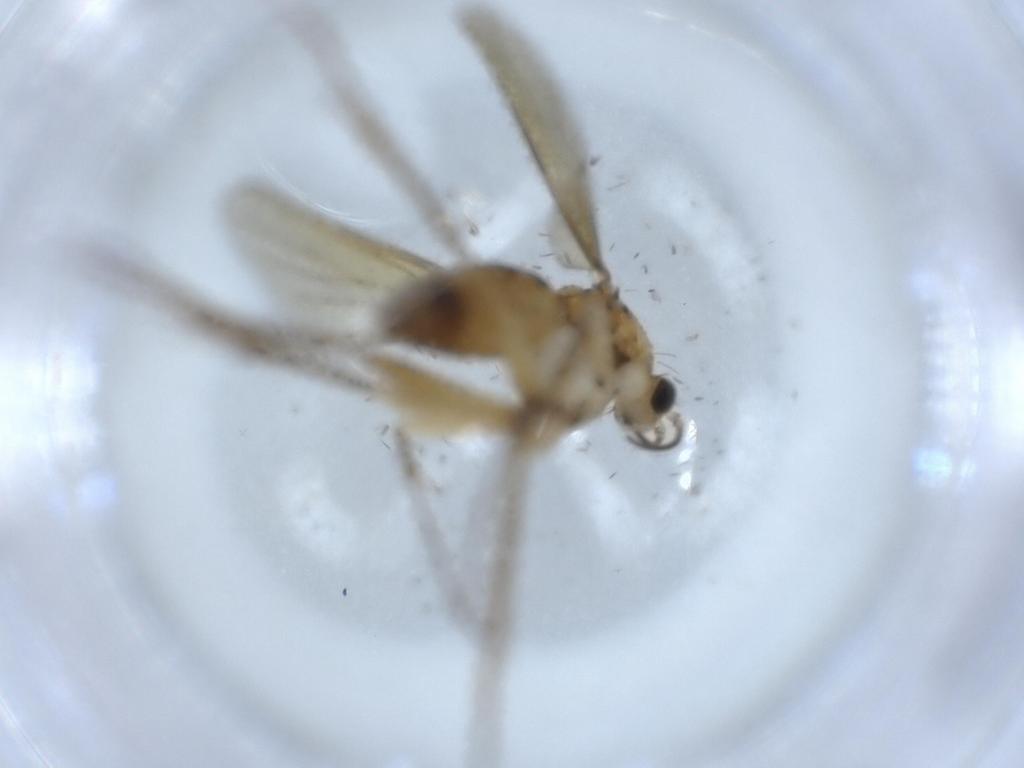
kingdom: Animalia
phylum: Arthropoda
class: Insecta
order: Diptera
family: Mycetophilidae
